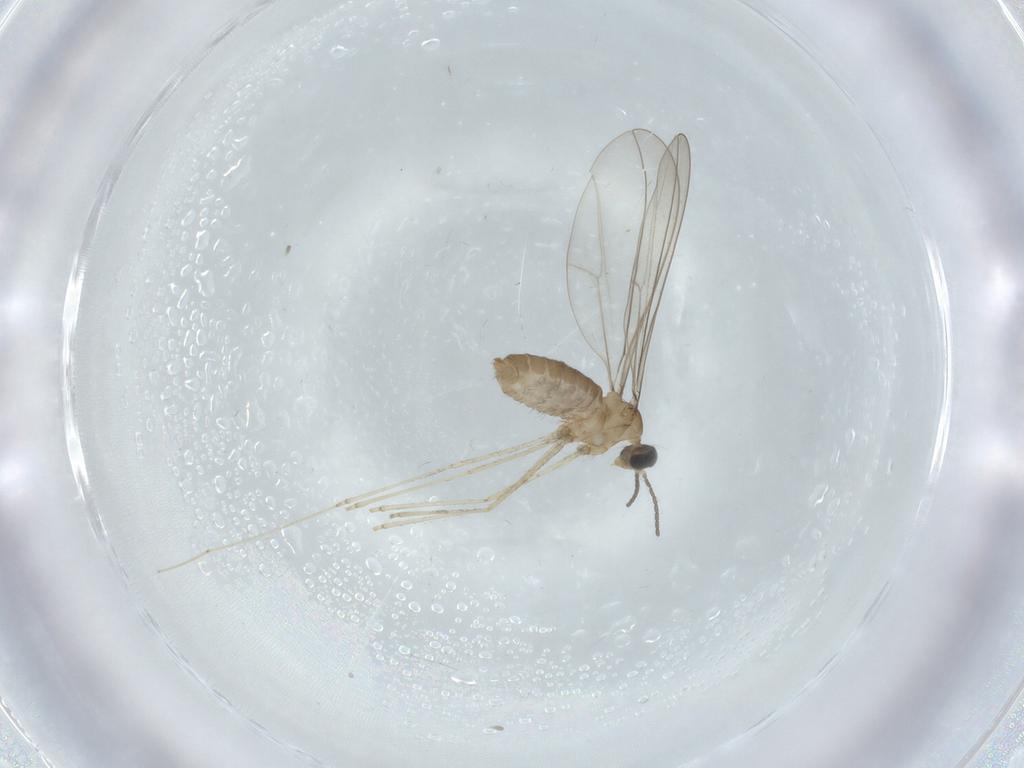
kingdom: Animalia
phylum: Arthropoda
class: Insecta
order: Diptera
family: Cecidomyiidae
